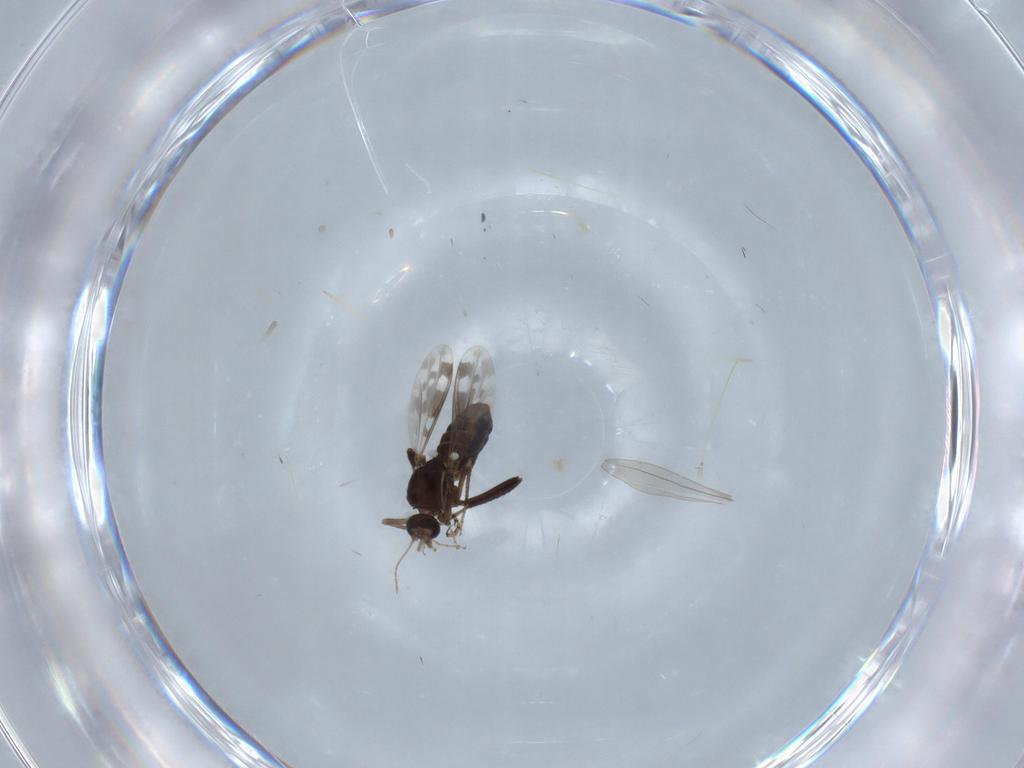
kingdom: Animalia
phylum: Arthropoda
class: Insecta
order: Diptera
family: Ceratopogonidae
